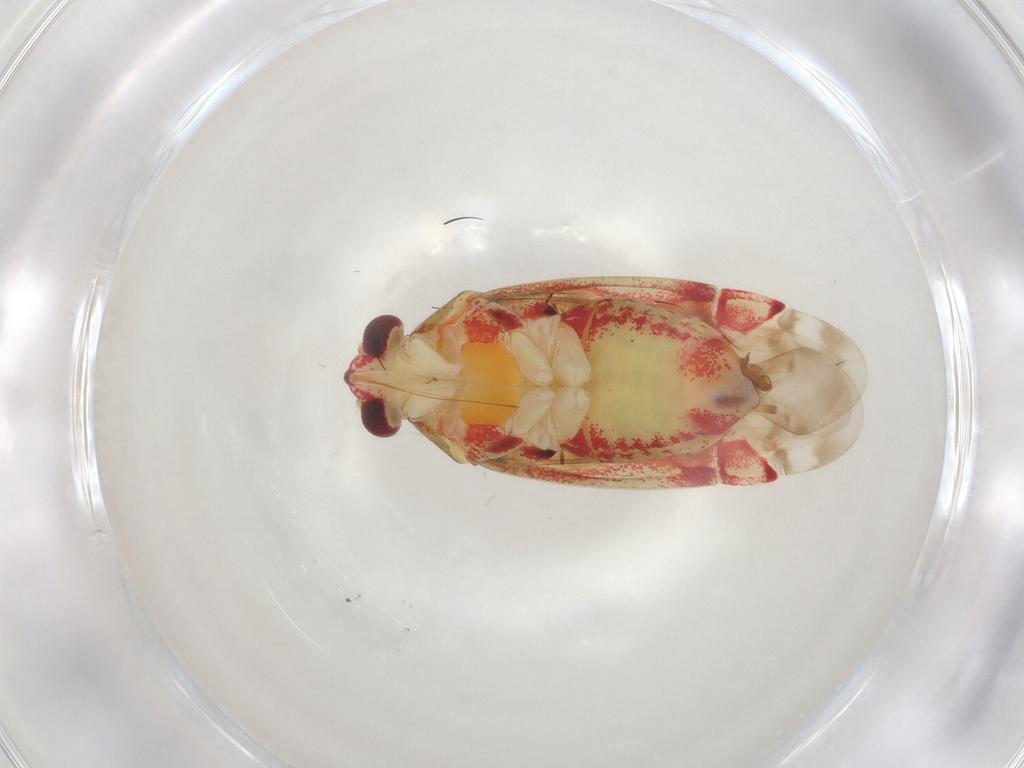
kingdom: Animalia
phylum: Arthropoda
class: Insecta
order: Hemiptera
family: Miridae
